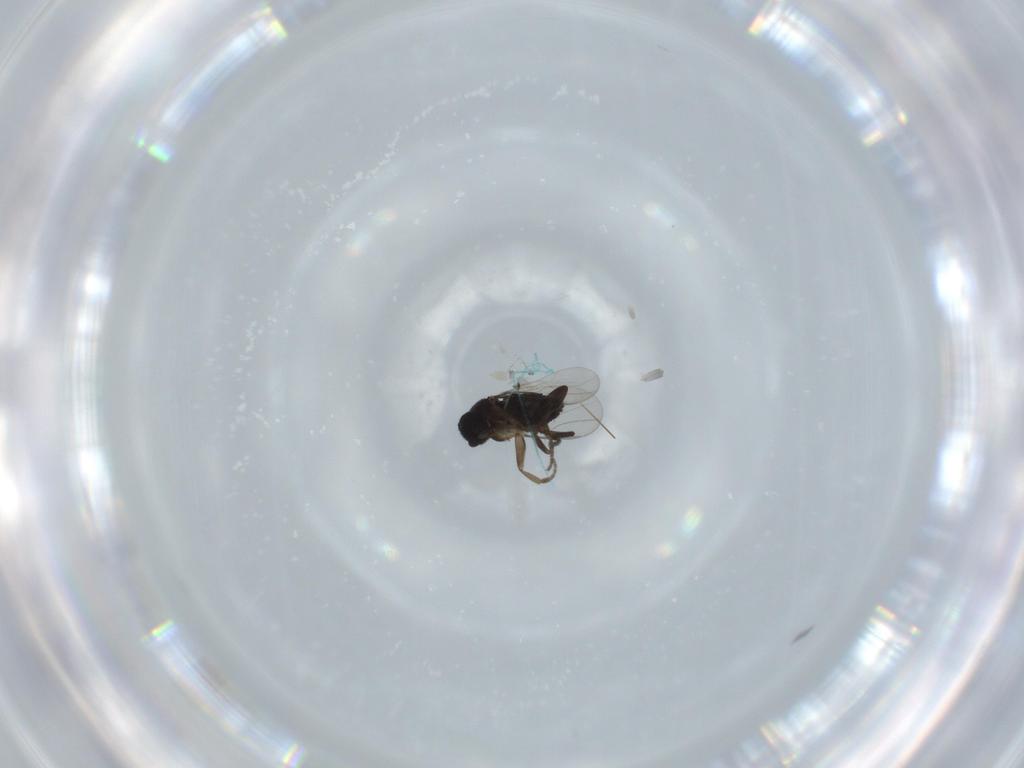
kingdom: Animalia
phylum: Arthropoda
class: Insecta
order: Diptera
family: Phoridae
